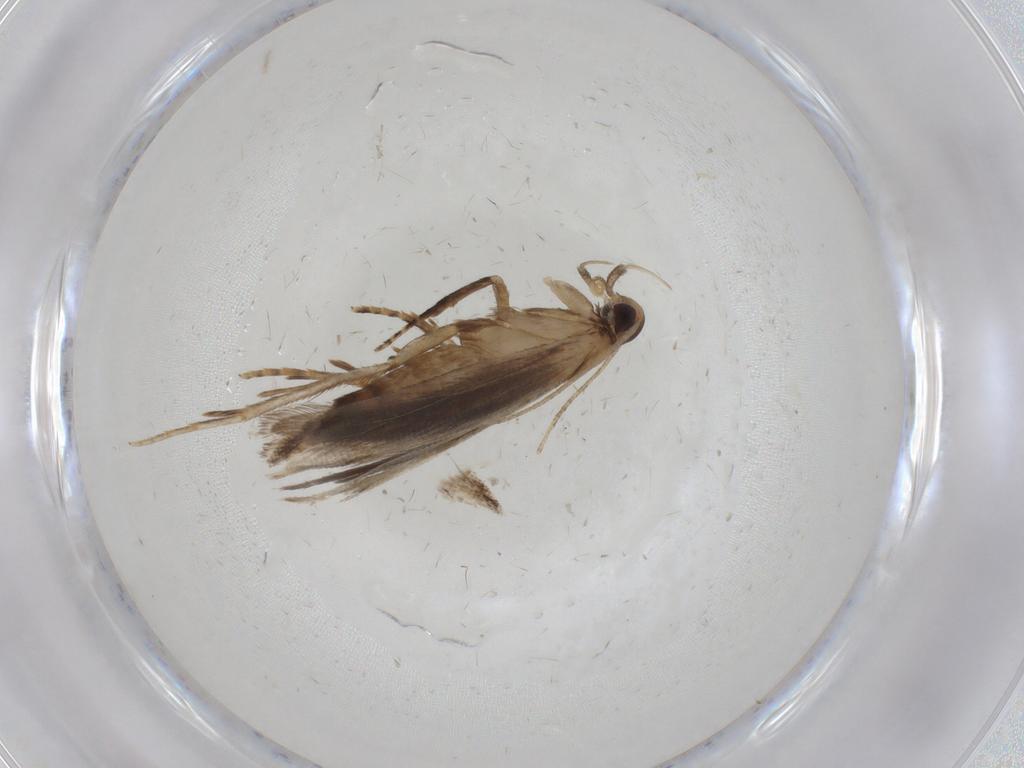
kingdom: Animalia
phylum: Arthropoda
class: Insecta
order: Lepidoptera
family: Gelechiidae
